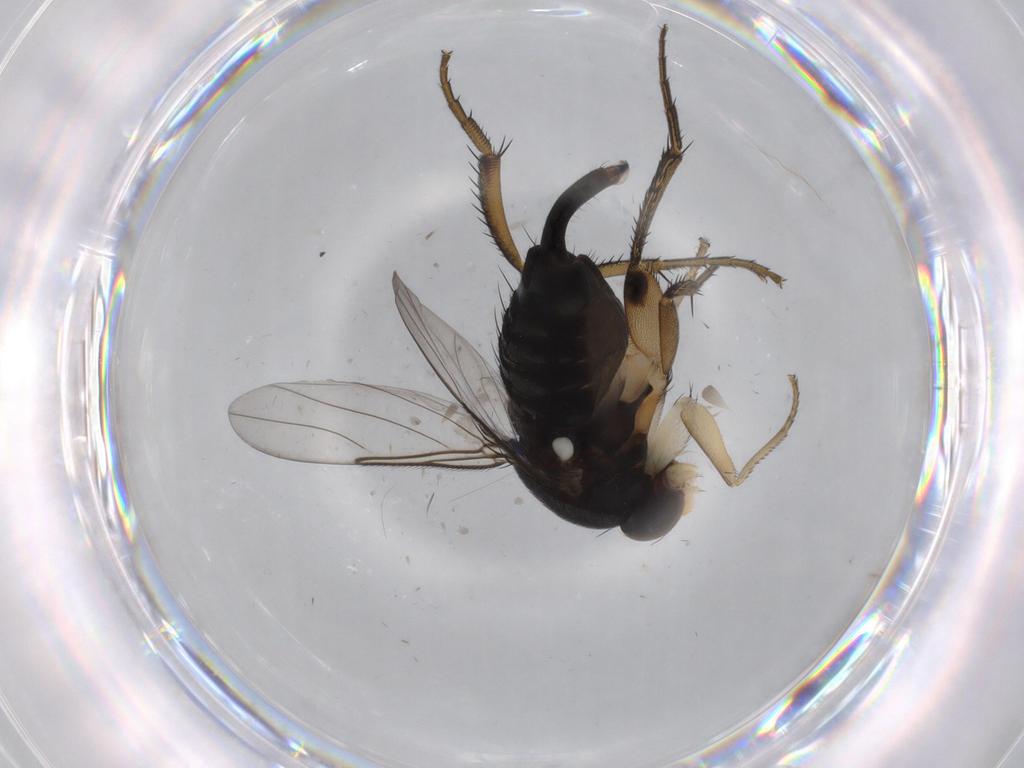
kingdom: Animalia
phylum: Arthropoda
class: Insecta
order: Diptera
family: Phoridae
